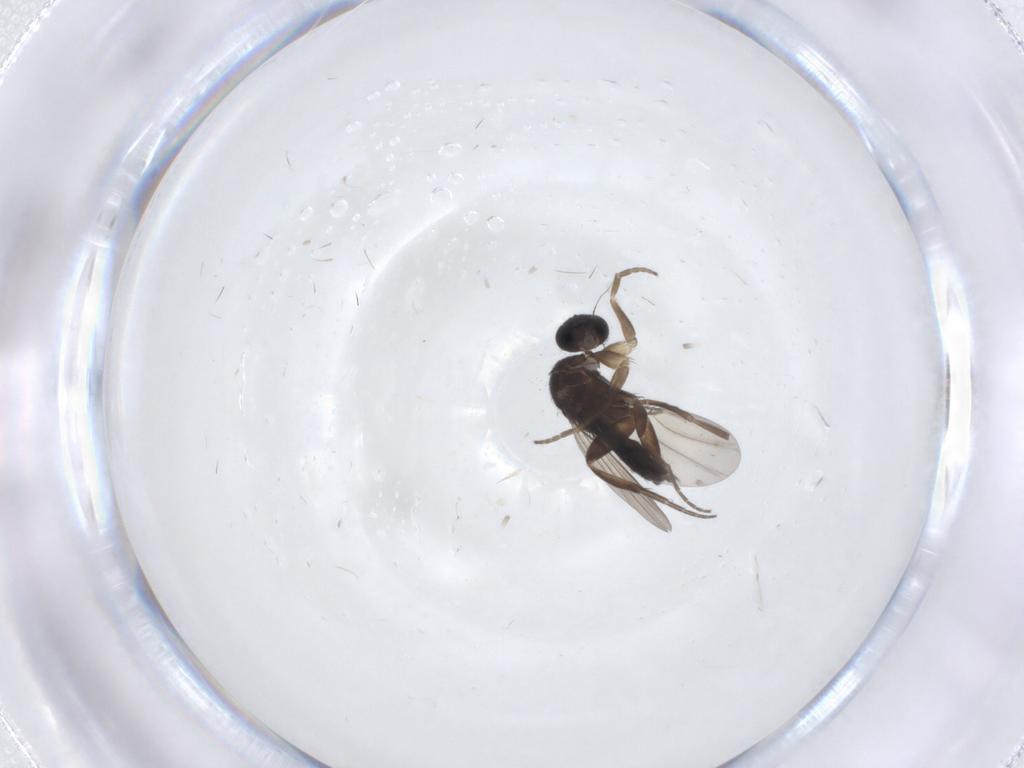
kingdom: Animalia
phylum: Arthropoda
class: Insecta
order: Diptera
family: Phoridae
